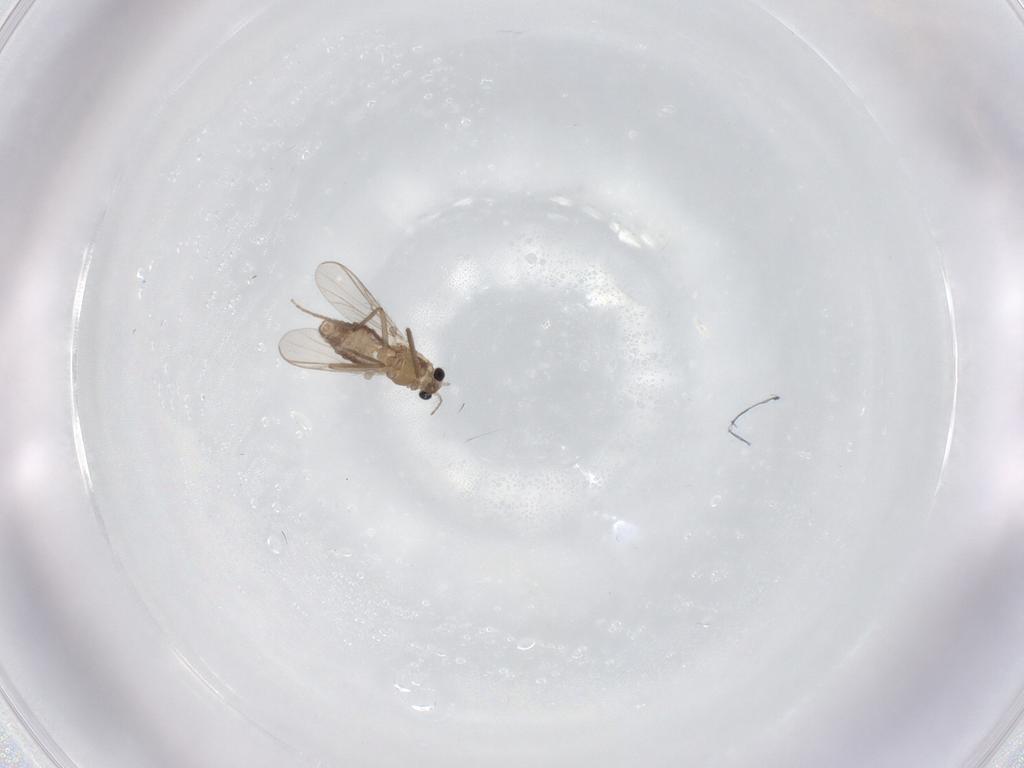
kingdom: Animalia
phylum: Arthropoda
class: Insecta
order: Diptera
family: Chironomidae
